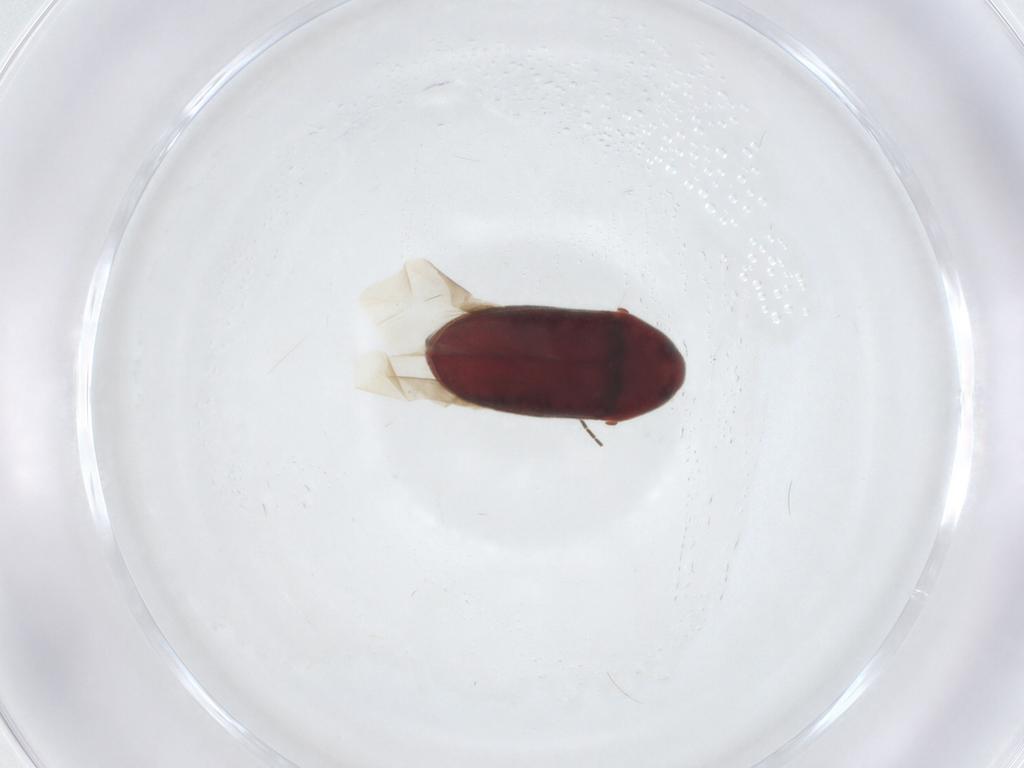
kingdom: Animalia
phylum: Arthropoda
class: Insecta
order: Coleoptera
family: Throscidae
